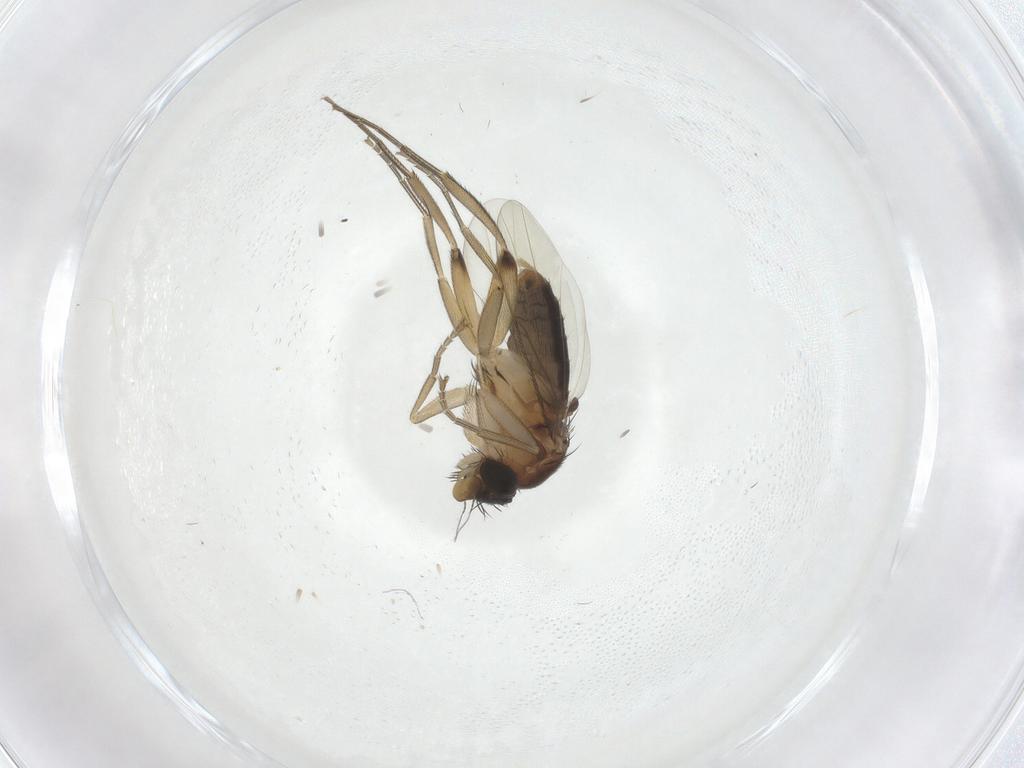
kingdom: Animalia
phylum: Arthropoda
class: Insecta
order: Diptera
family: Phoridae
